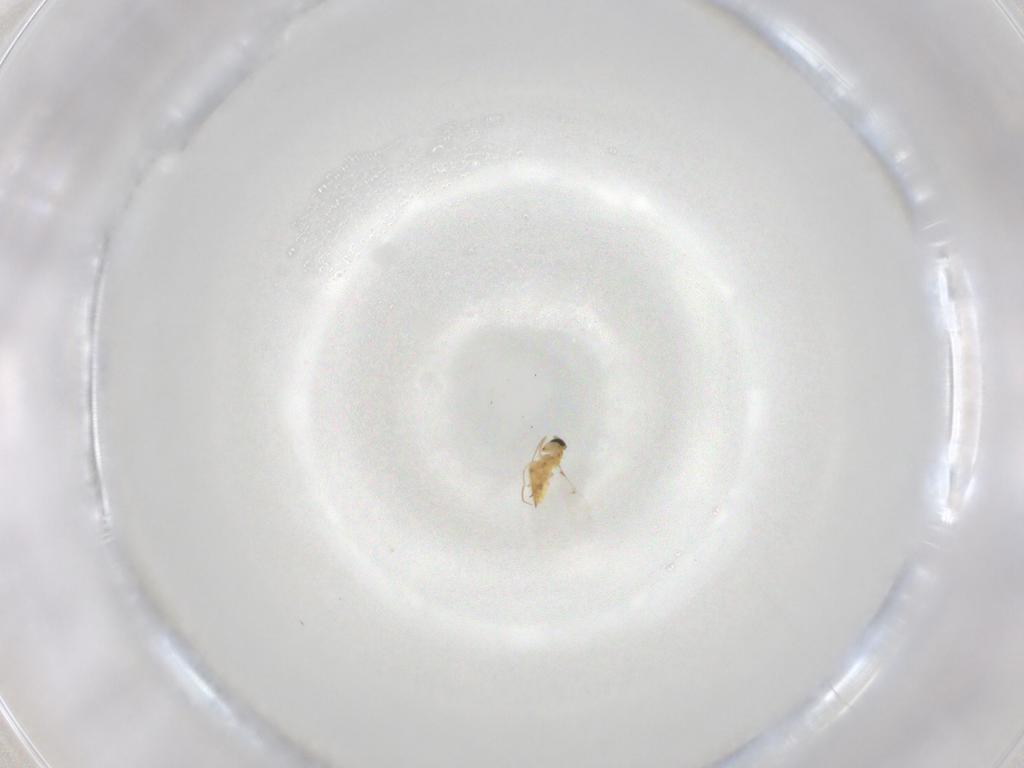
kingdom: Animalia
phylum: Arthropoda
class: Insecta
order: Hymenoptera
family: Trichogrammatidae
